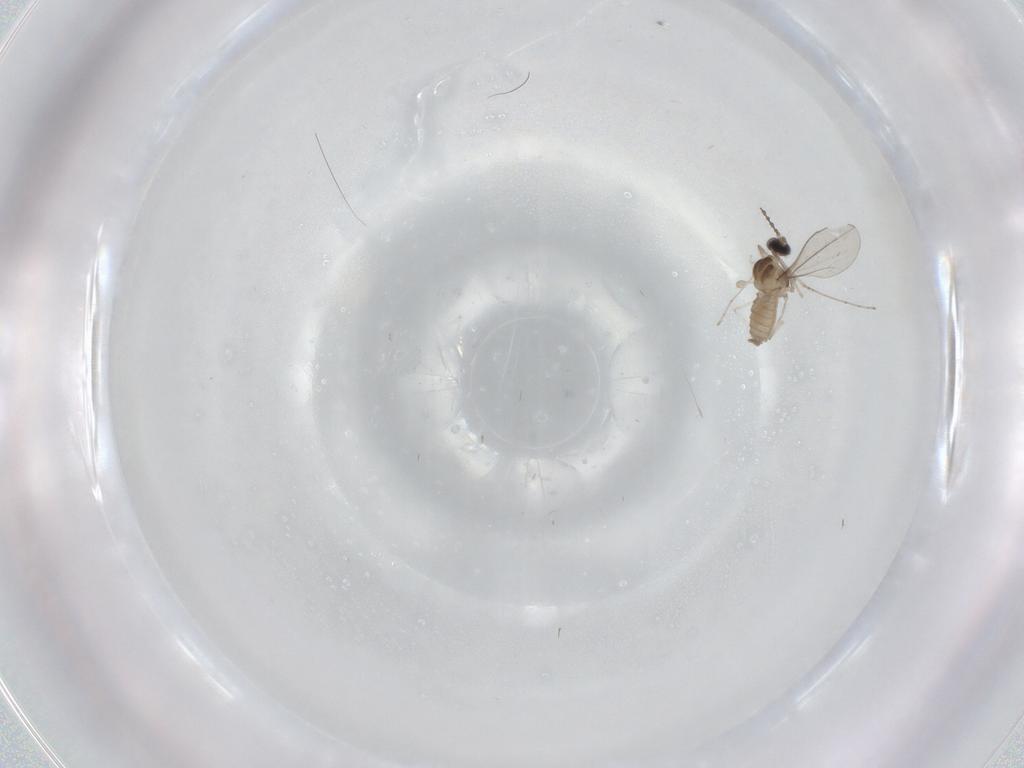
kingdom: Animalia
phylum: Arthropoda
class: Insecta
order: Diptera
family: Cecidomyiidae
